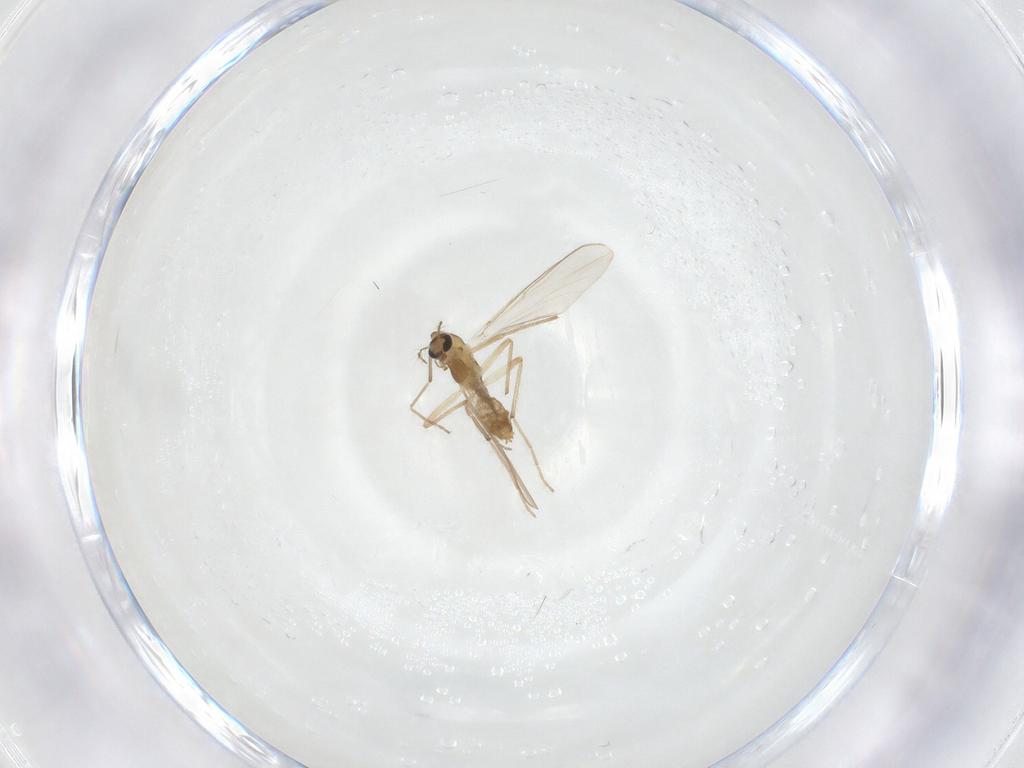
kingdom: Animalia
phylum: Arthropoda
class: Insecta
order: Diptera
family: Chironomidae
